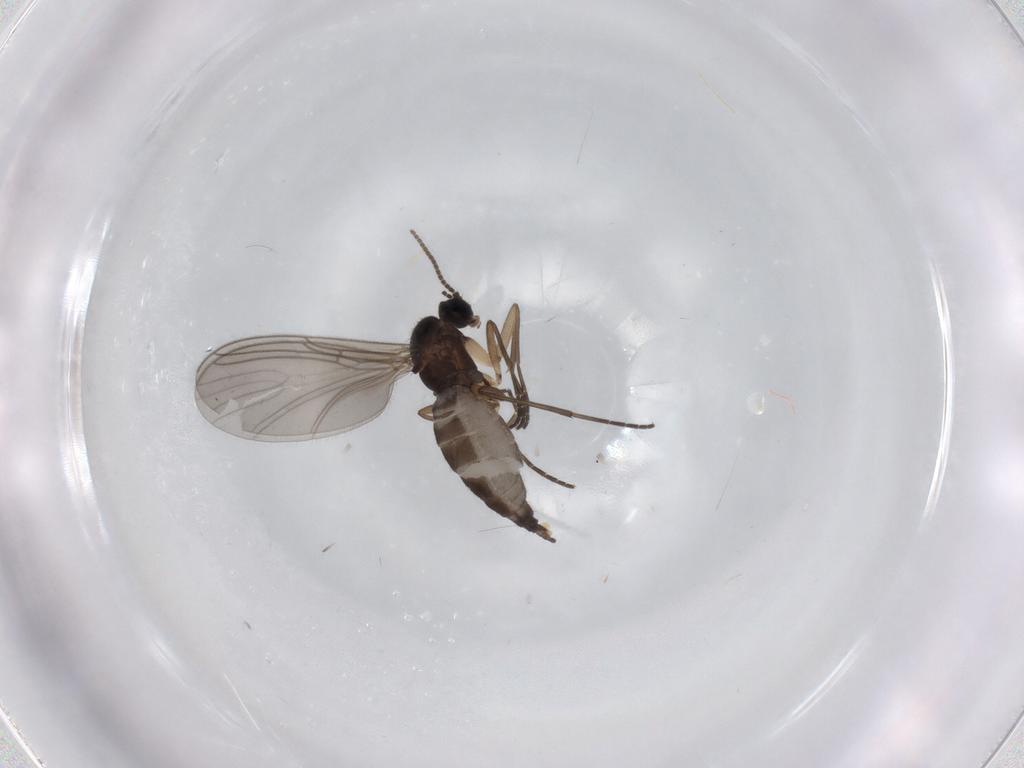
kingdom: Animalia
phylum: Arthropoda
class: Insecta
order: Diptera
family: Sciaridae
